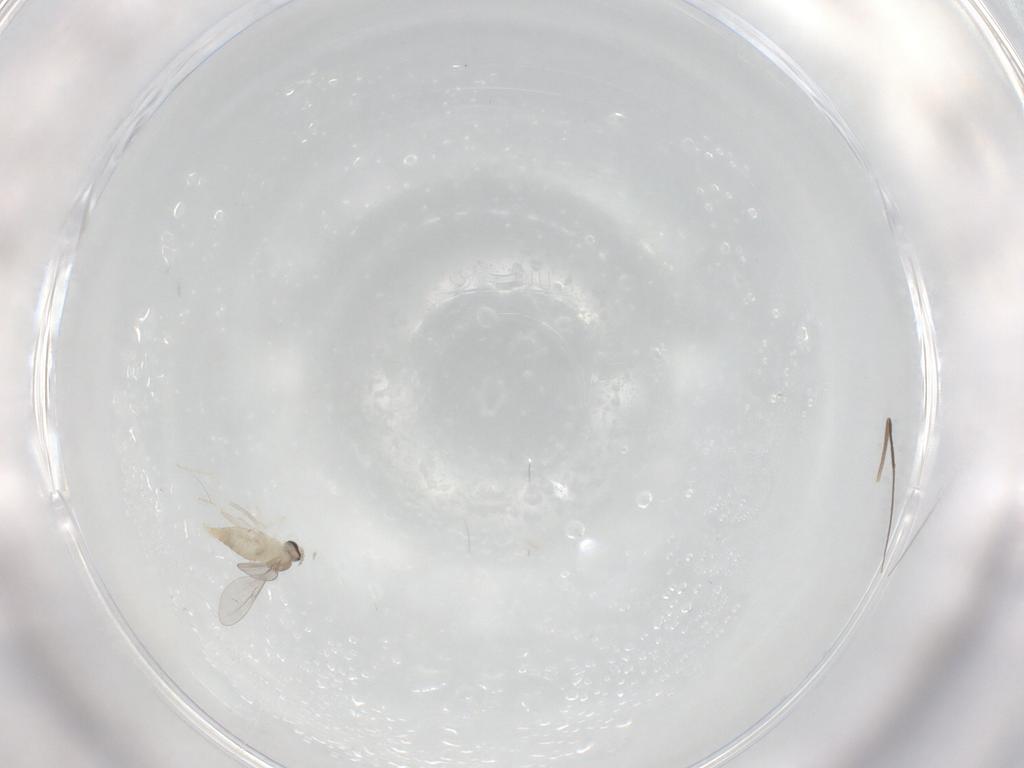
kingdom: Animalia
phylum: Arthropoda
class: Insecta
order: Diptera
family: Cecidomyiidae
